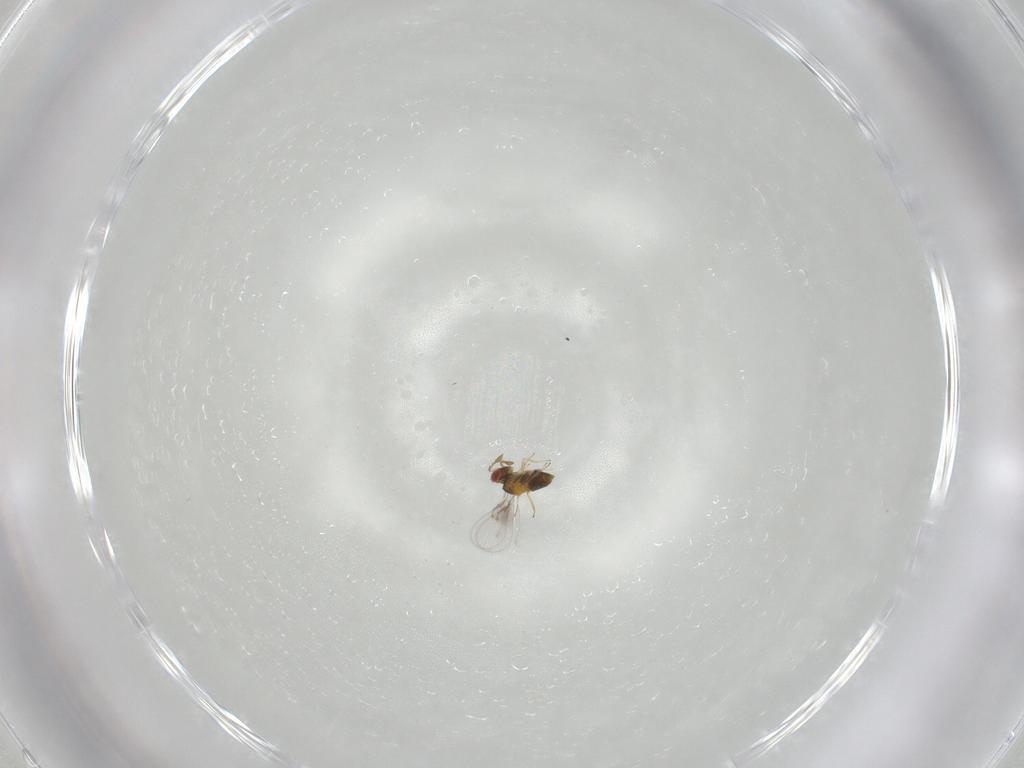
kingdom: Animalia
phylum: Arthropoda
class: Insecta
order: Hymenoptera
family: Trichogrammatidae
